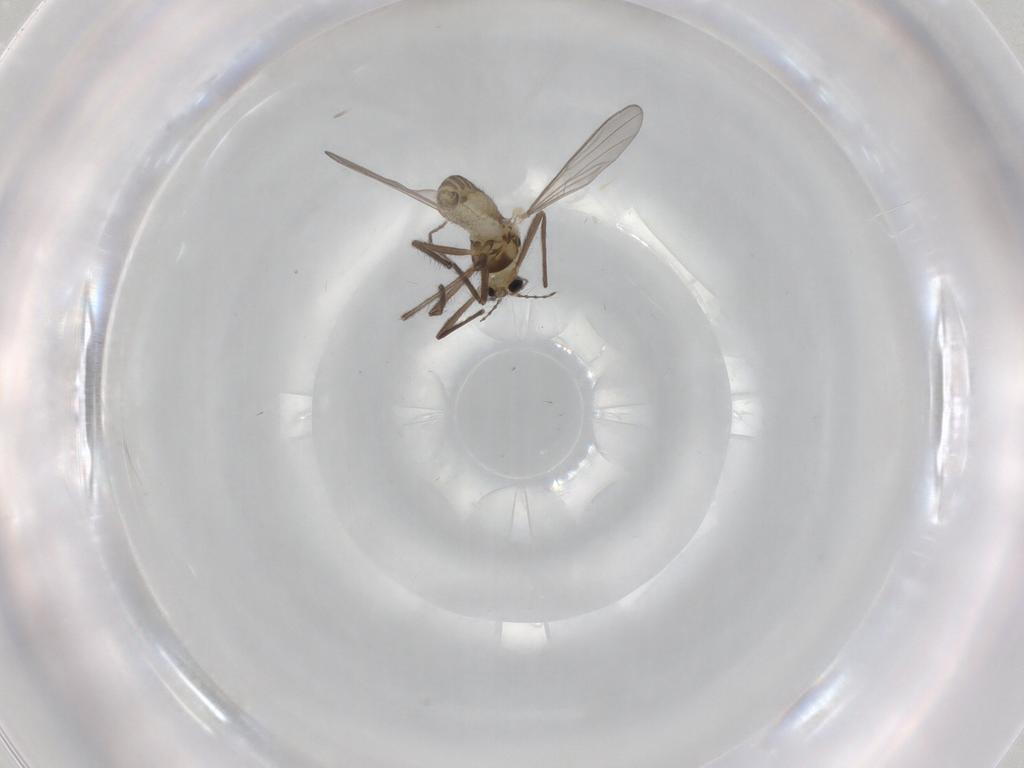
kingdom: Animalia
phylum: Arthropoda
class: Insecta
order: Diptera
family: Chironomidae
